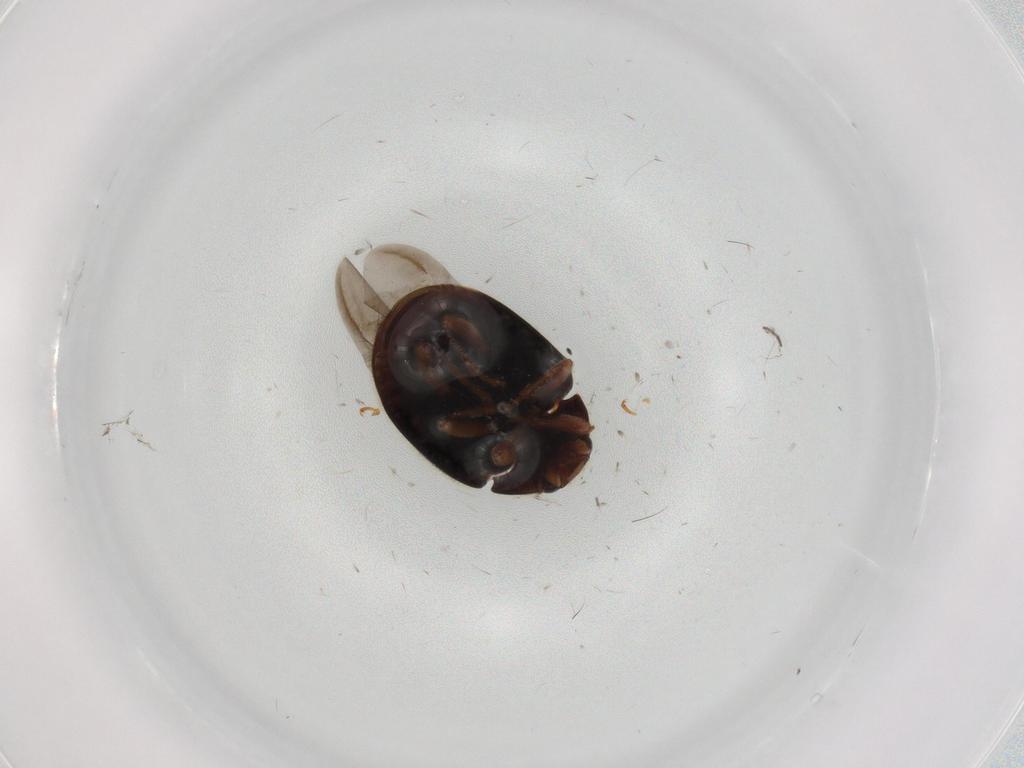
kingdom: Animalia
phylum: Arthropoda
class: Insecta
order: Coleoptera
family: Coccinellidae
